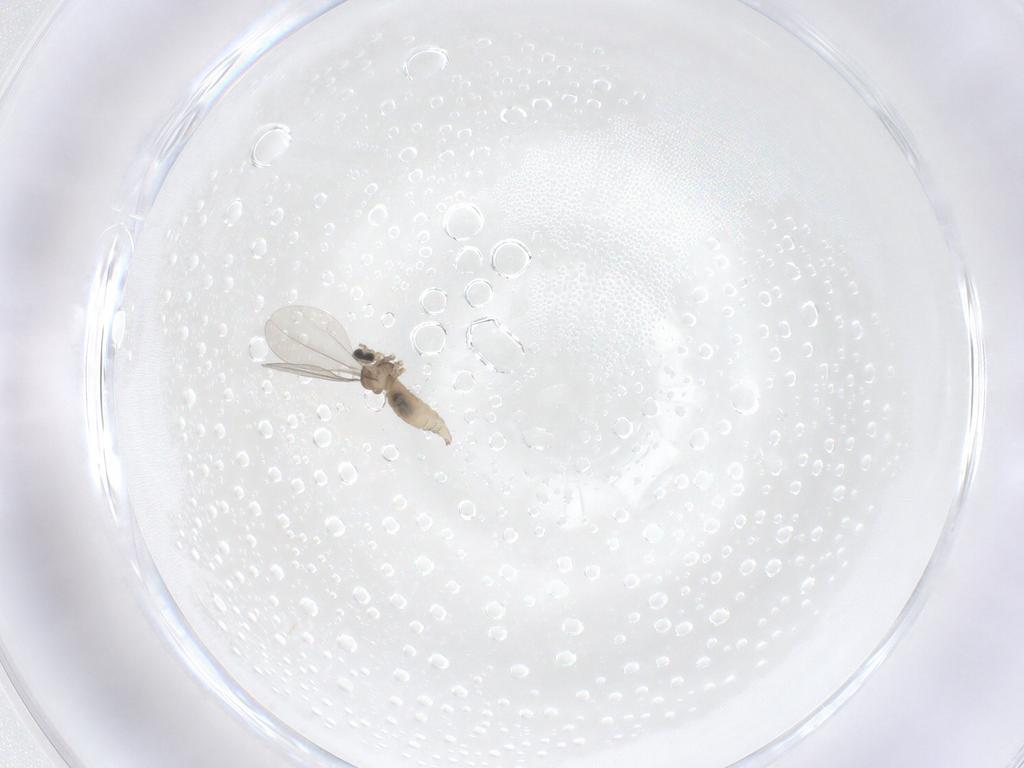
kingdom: Animalia
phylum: Arthropoda
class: Insecta
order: Diptera
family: Cecidomyiidae
